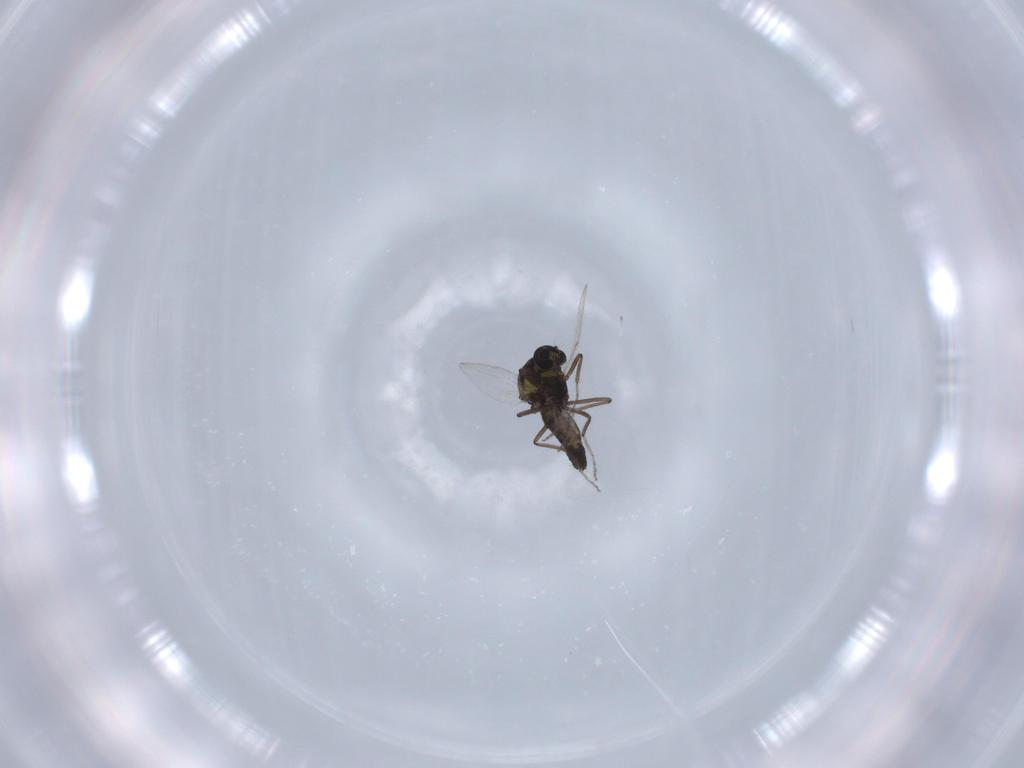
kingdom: Animalia
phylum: Arthropoda
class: Insecta
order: Diptera
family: Ceratopogonidae
